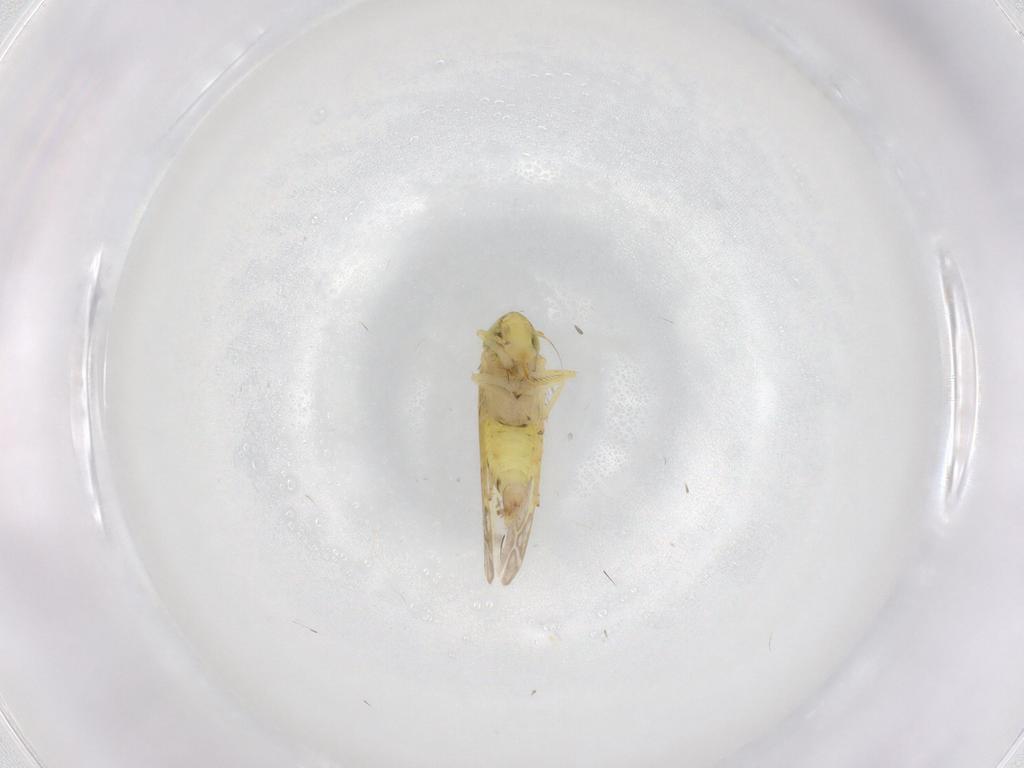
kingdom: Animalia
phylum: Arthropoda
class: Insecta
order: Hemiptera
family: Cicadellidae
